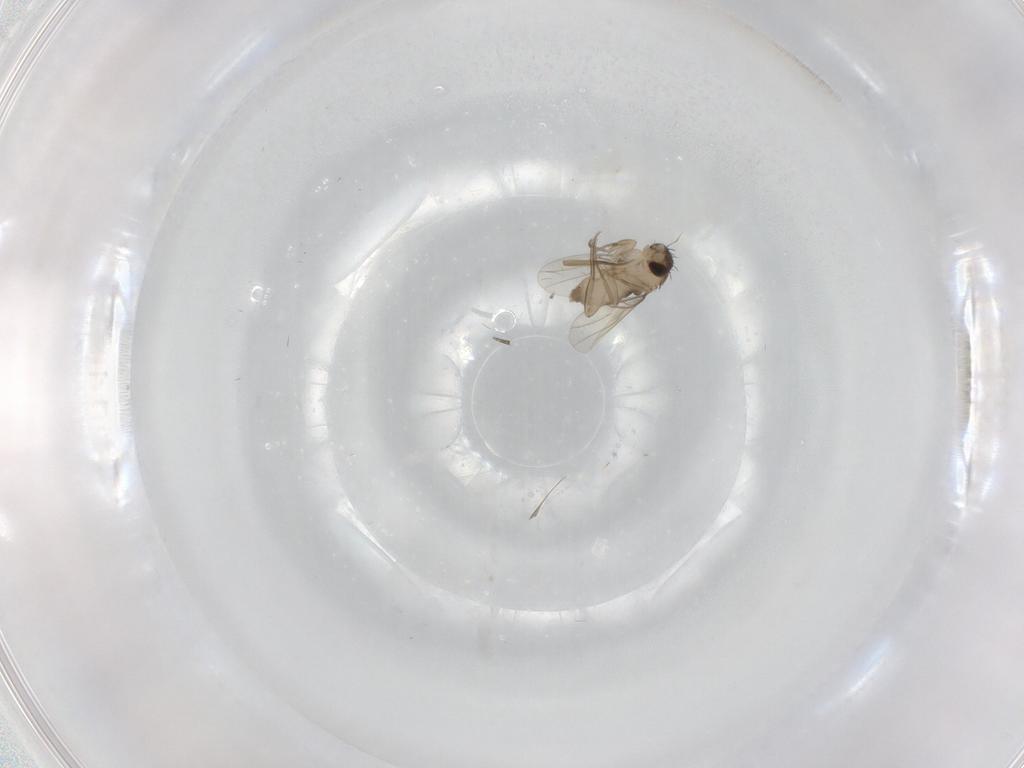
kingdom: Animalia
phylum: Arthropoda
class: Insecta
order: Diptera
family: Phoridae
